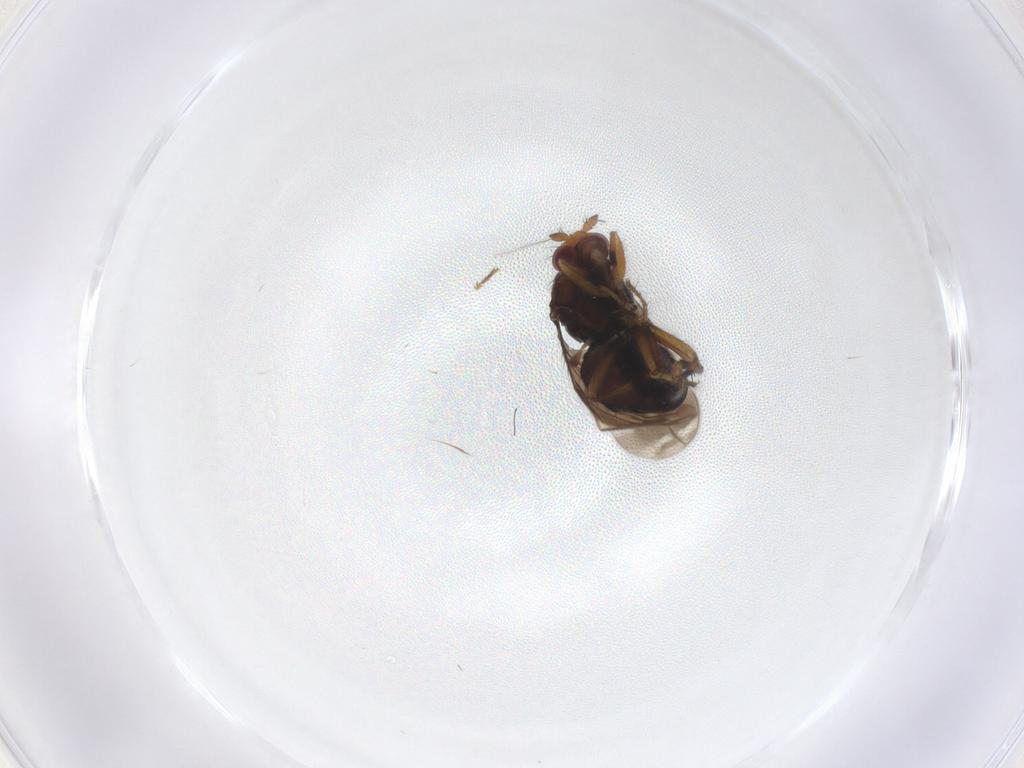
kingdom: Animalia
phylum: Arthropoda
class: Insecta
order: Diptera
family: Sphaeroceridae
